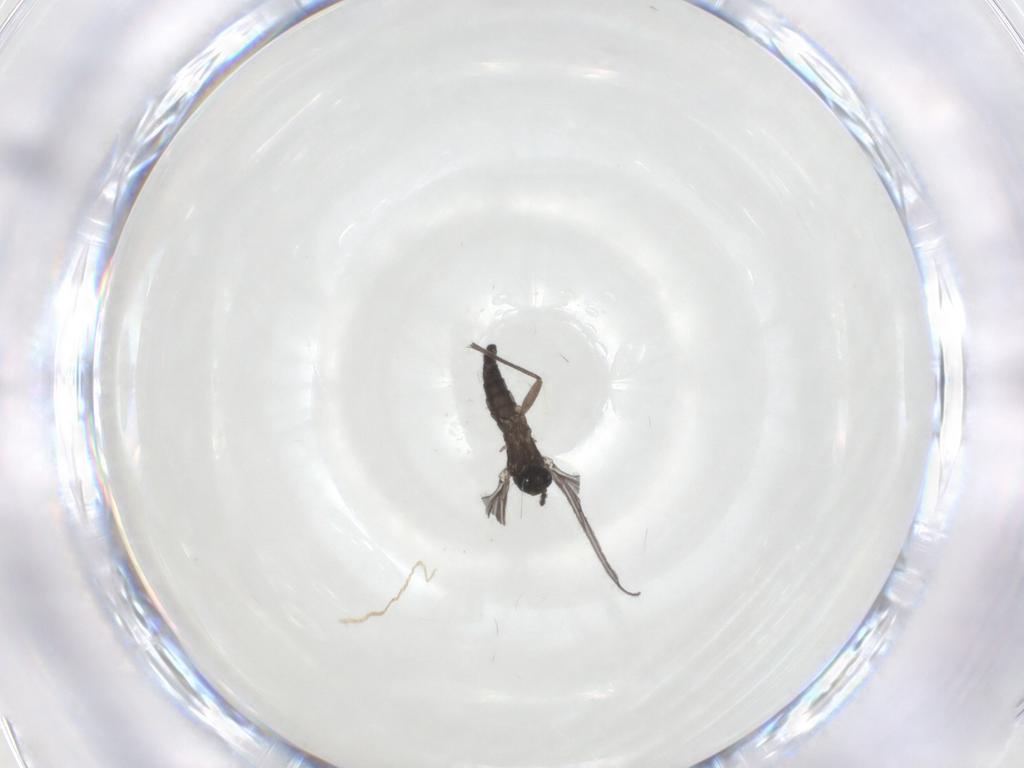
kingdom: Animalia
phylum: Arthropoda
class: Insecta
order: Diptera
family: Sciaridae
